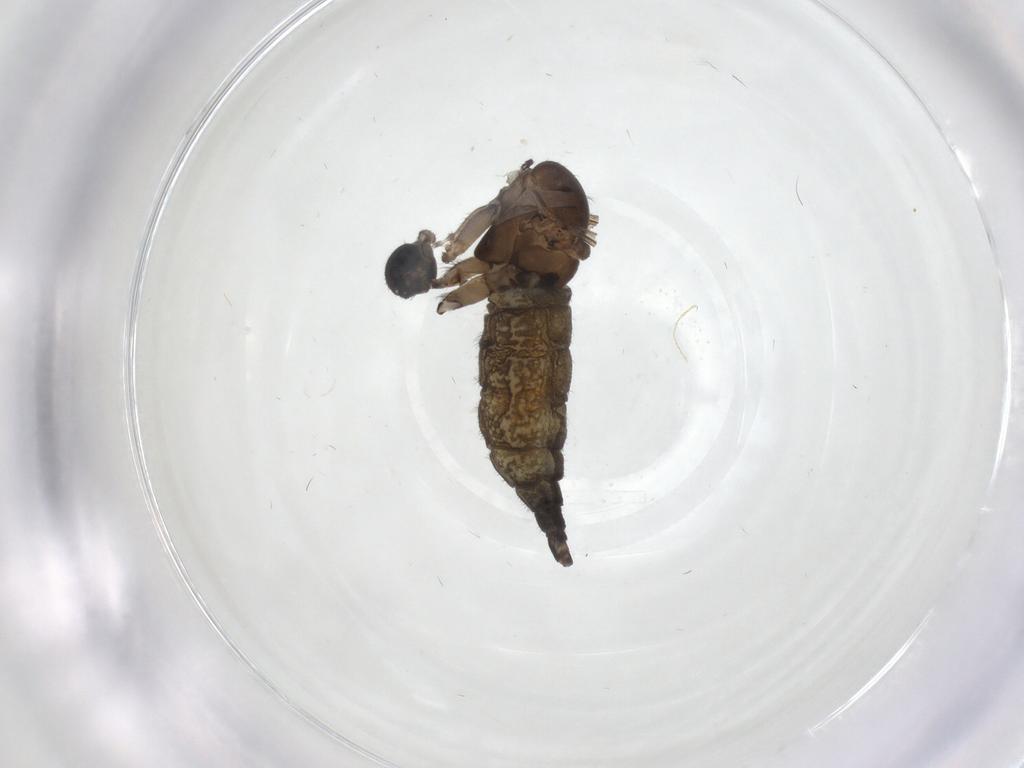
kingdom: Animalia
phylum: Arthropoda
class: Insecta
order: Diptera
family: Sciaridae
